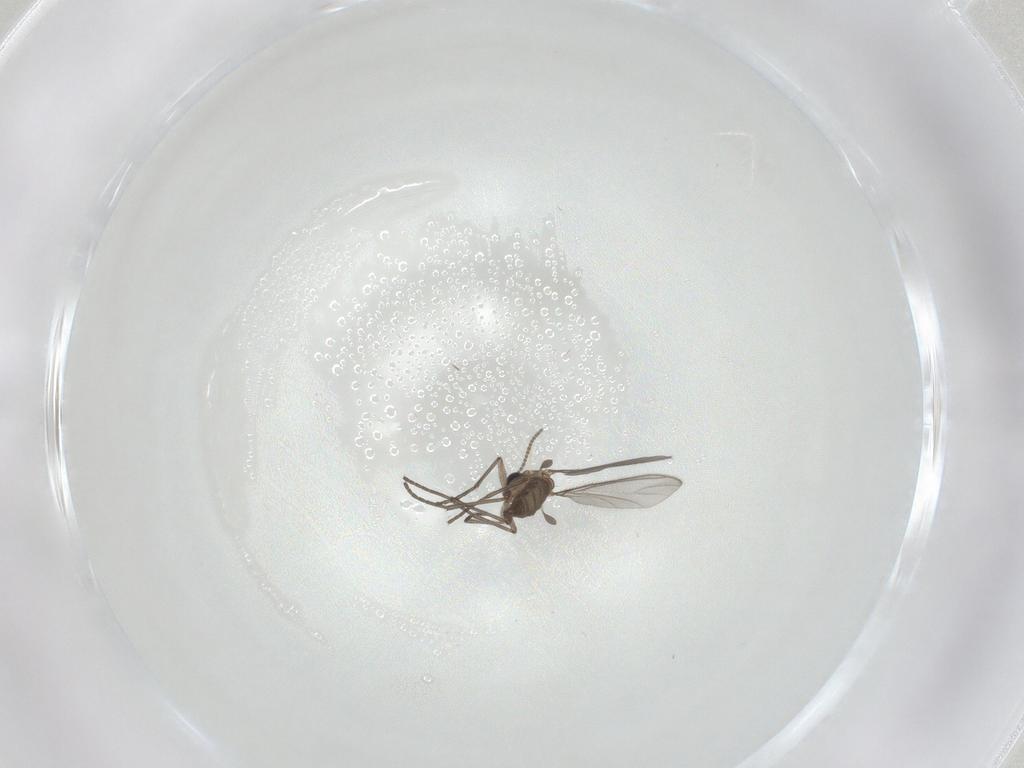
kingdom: Animalia
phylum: Arthropoda
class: Insecta
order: Diptera
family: Sciaridae
